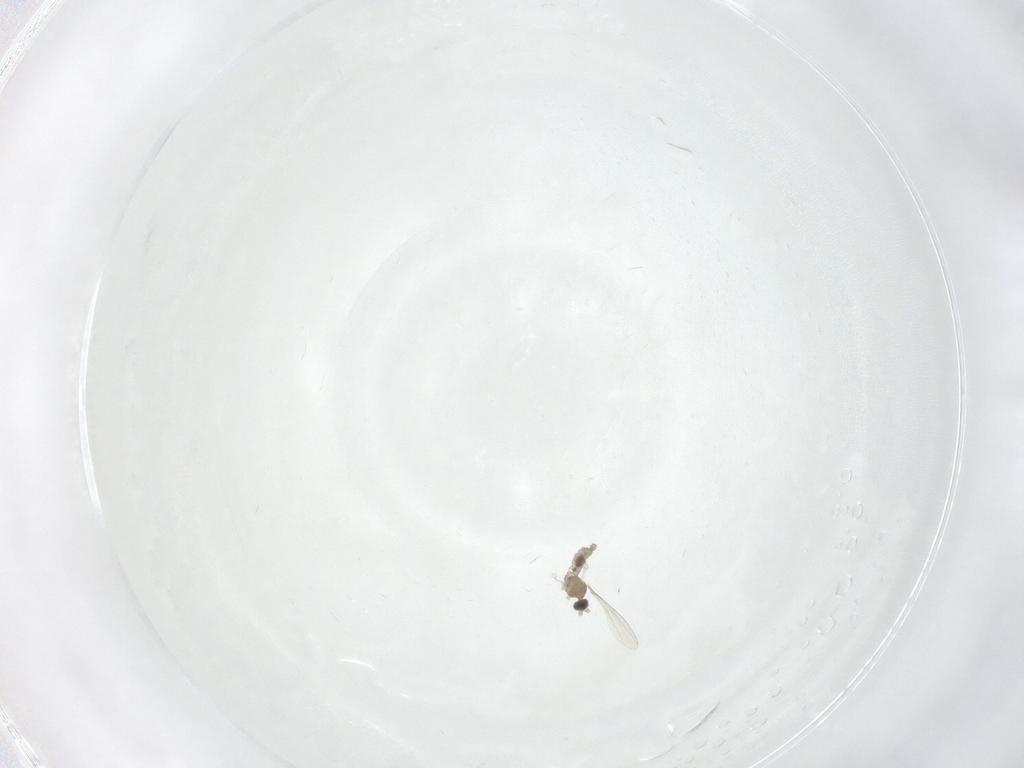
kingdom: Animalia
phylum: Arthropoda
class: Insecta
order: Diptera
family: Cecidomyiidae
